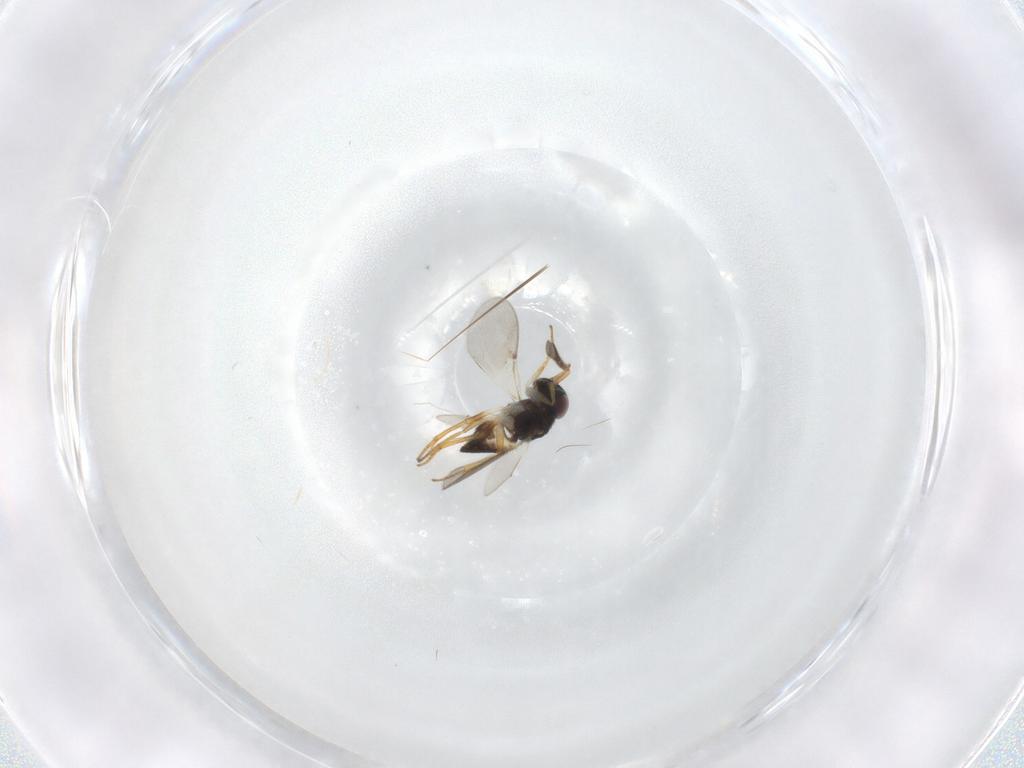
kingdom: Animalia
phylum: Arthropoda
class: Insecta
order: Hymenoptera
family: Encyrtidae
